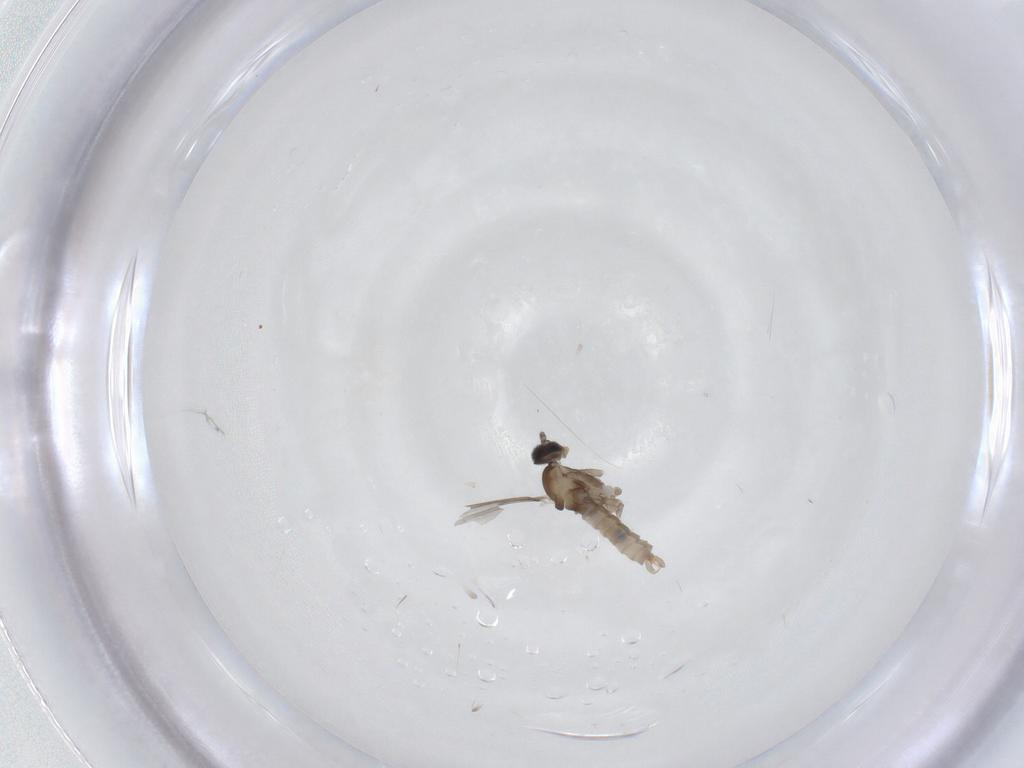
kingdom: Animalia
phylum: Arthropoda
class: Insecta
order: Diptera
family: Cecidomyiidae
